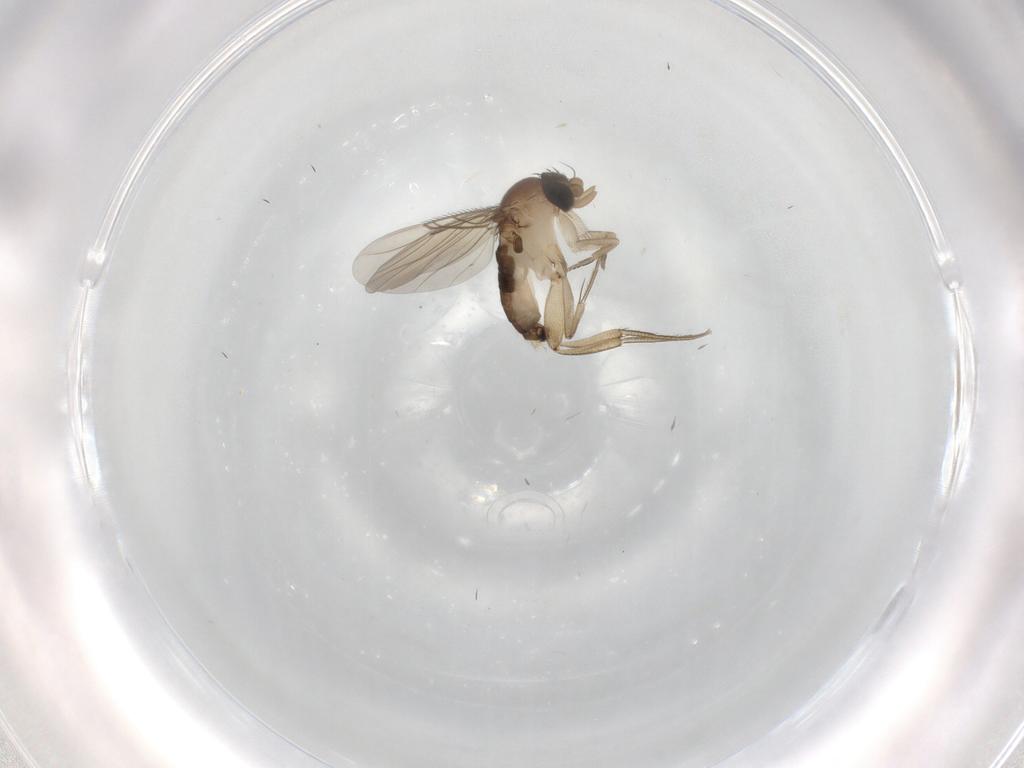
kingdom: Animalia
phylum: Arthropoda
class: Insecta
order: Diptera
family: Phoridae
